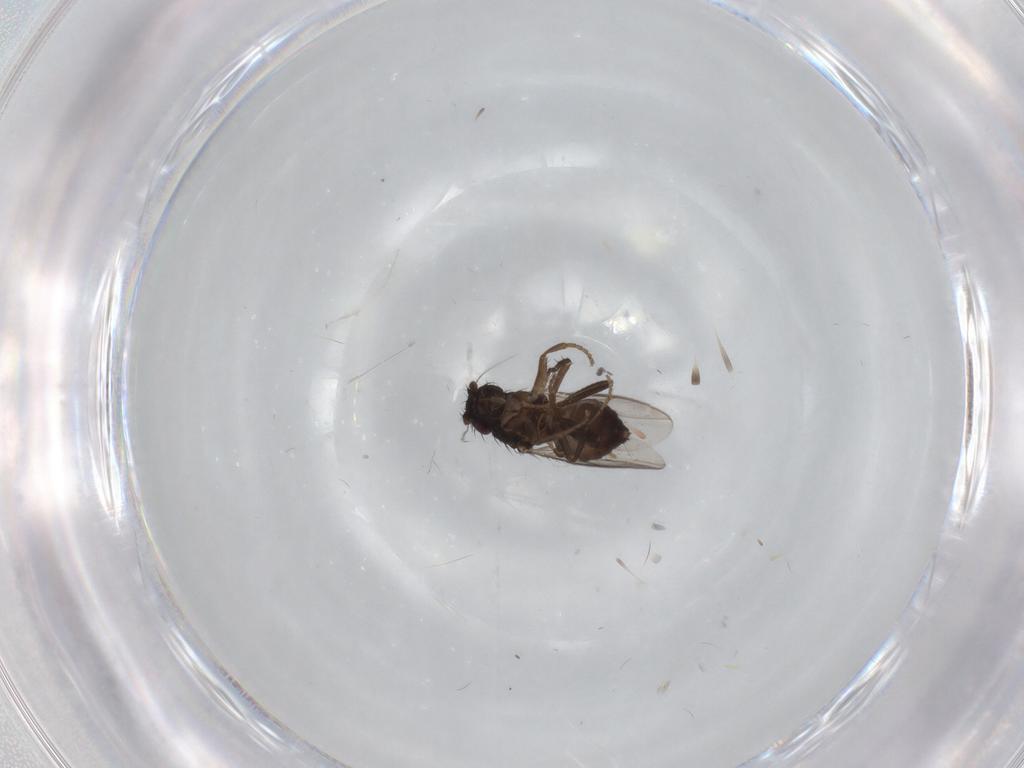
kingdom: Animalia
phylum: Arthropoda
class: Insecta
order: Diptera
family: Sphaeroceridae
